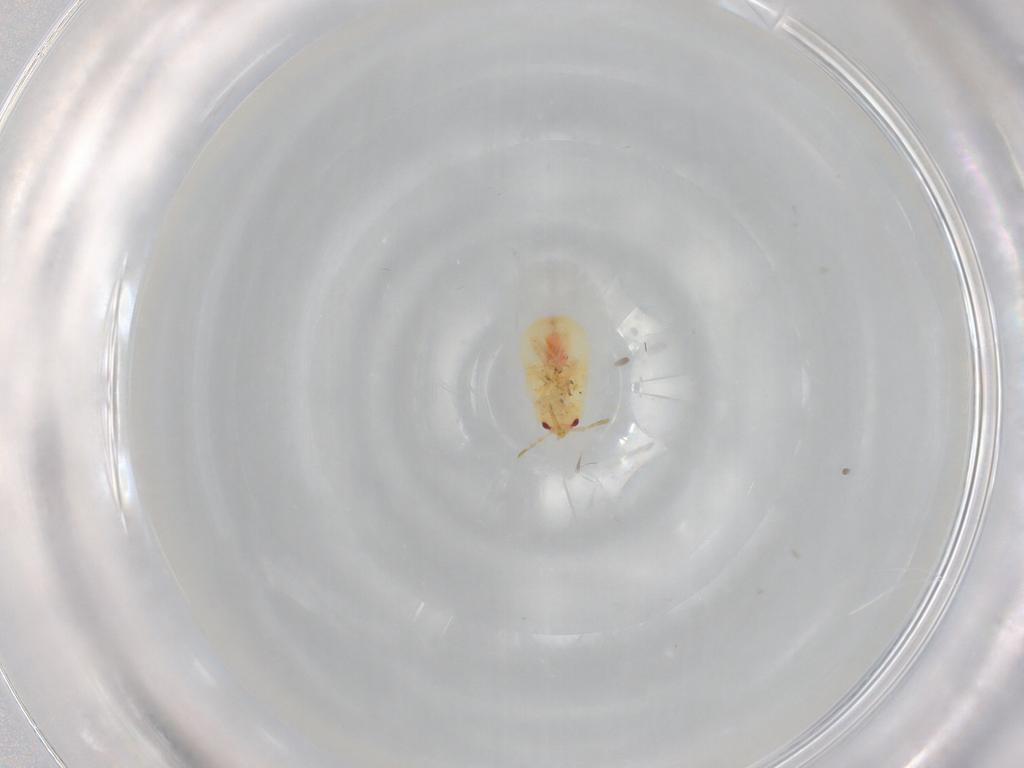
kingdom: Animalia
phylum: Arthropoda
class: Insecta
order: Hemiptera
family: Anthocoridae
